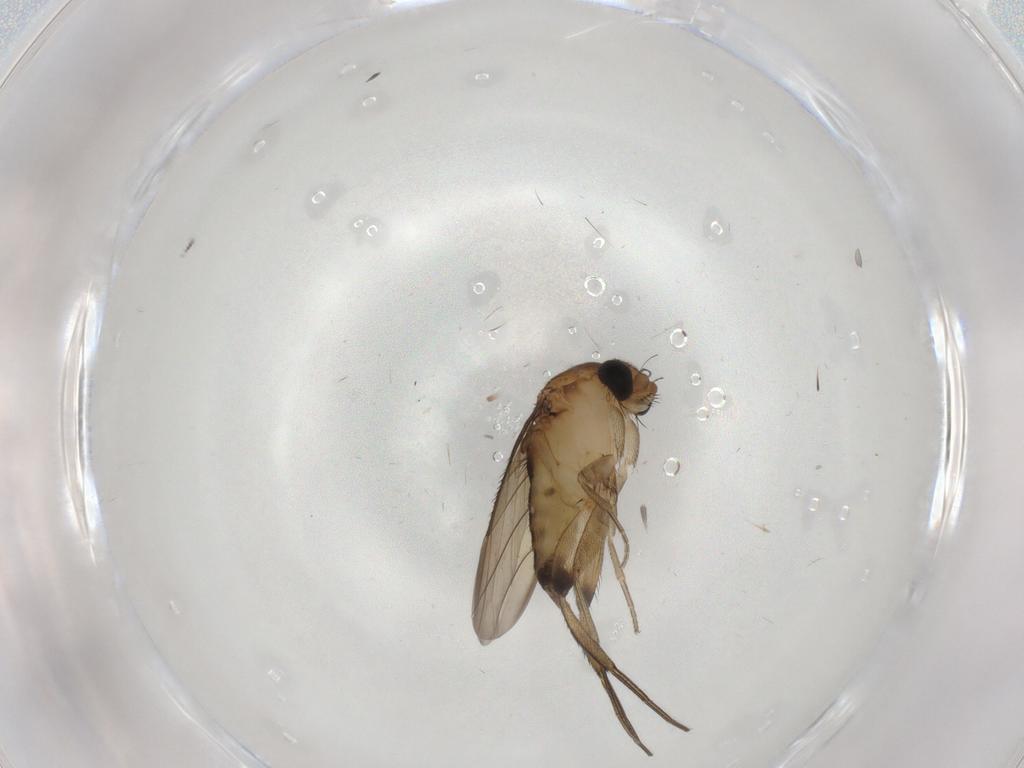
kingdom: Animalia
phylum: Arthropoda
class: Insecta
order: Diptera
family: Phoridae
